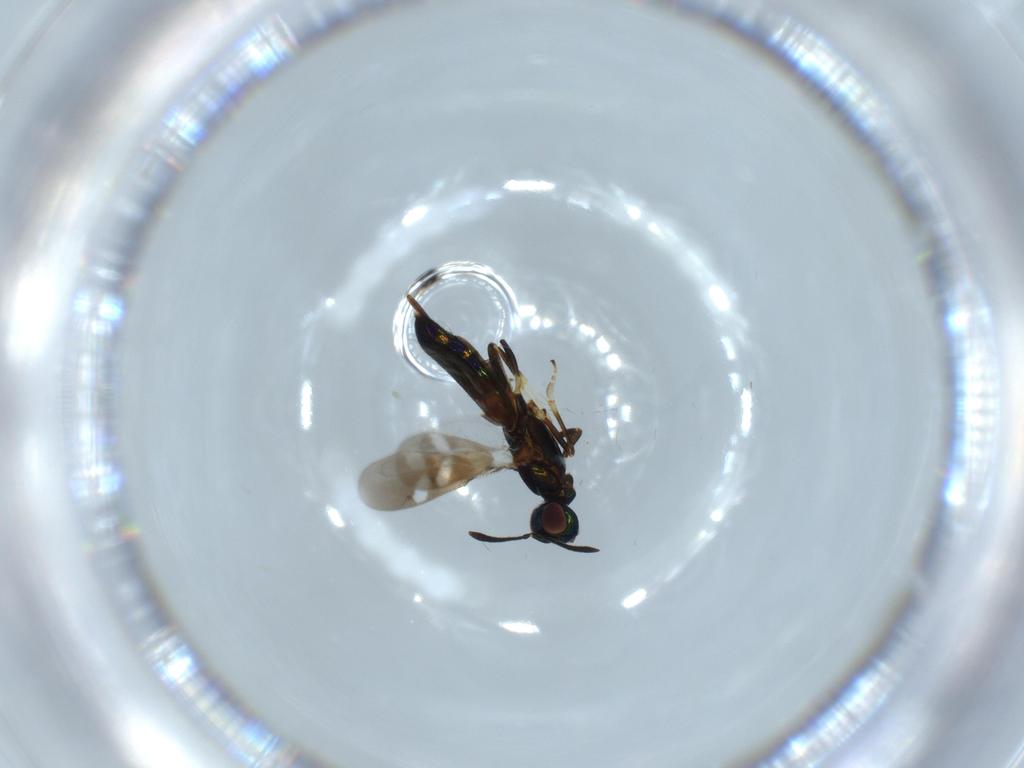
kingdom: Animalia
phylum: Arthropoda
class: Insecta
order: Hymenoptera
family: Eupelmidae
